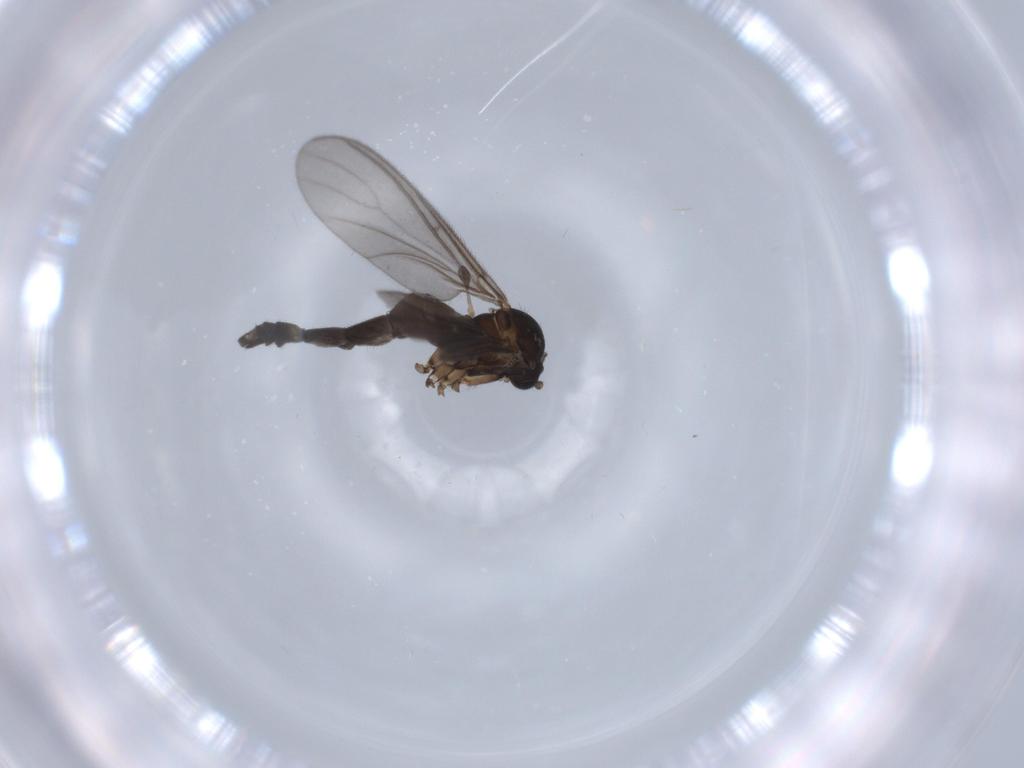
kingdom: Animalia
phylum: Arthropoda
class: Insecta
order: Diptera
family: Sciaridae
